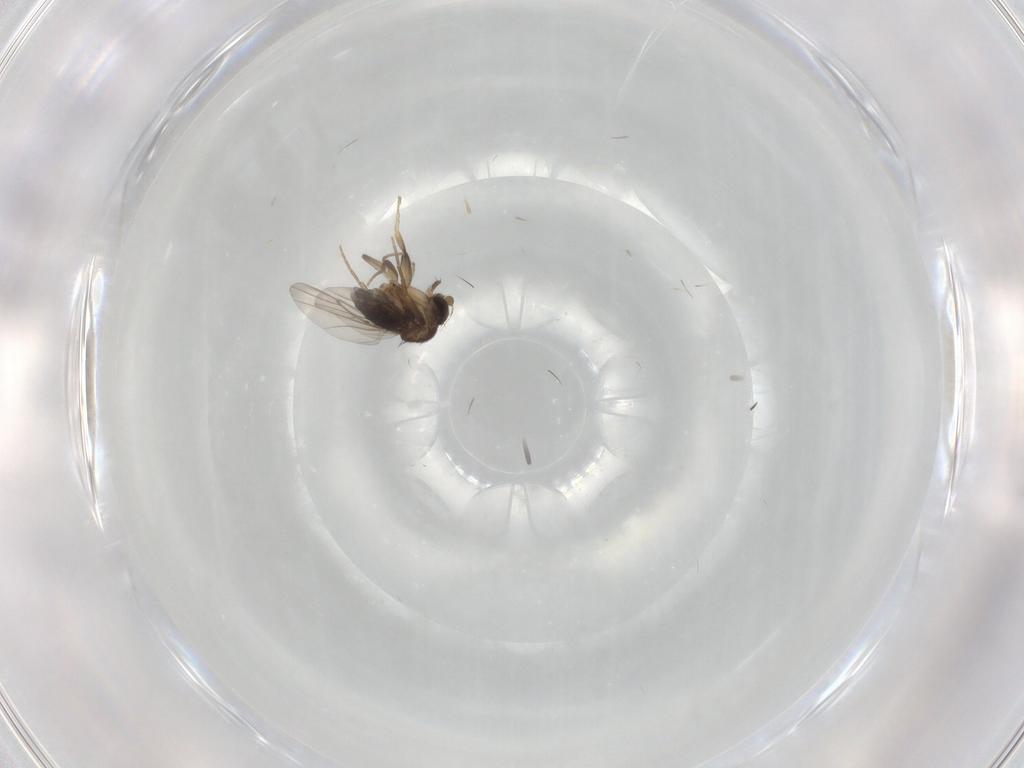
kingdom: Animalia
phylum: Arthropoda
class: Insecta
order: Diptera
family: Phoridae
